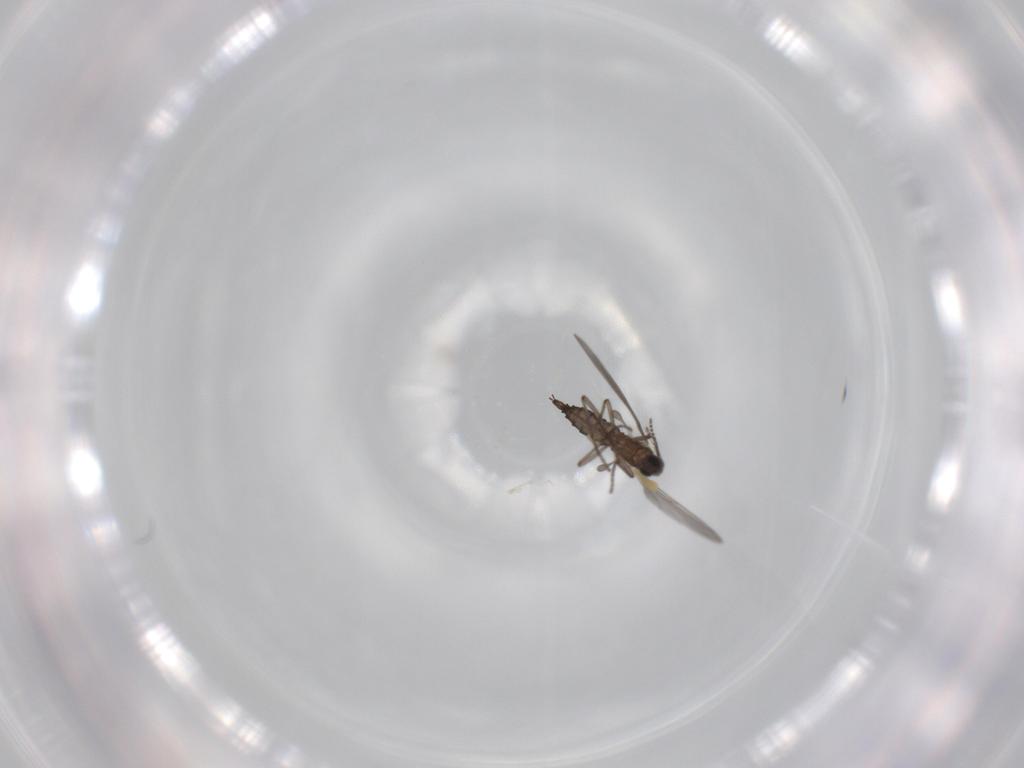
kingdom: Animalia
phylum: Arthropoda
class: Insecta
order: Diptera
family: Sciaridae
